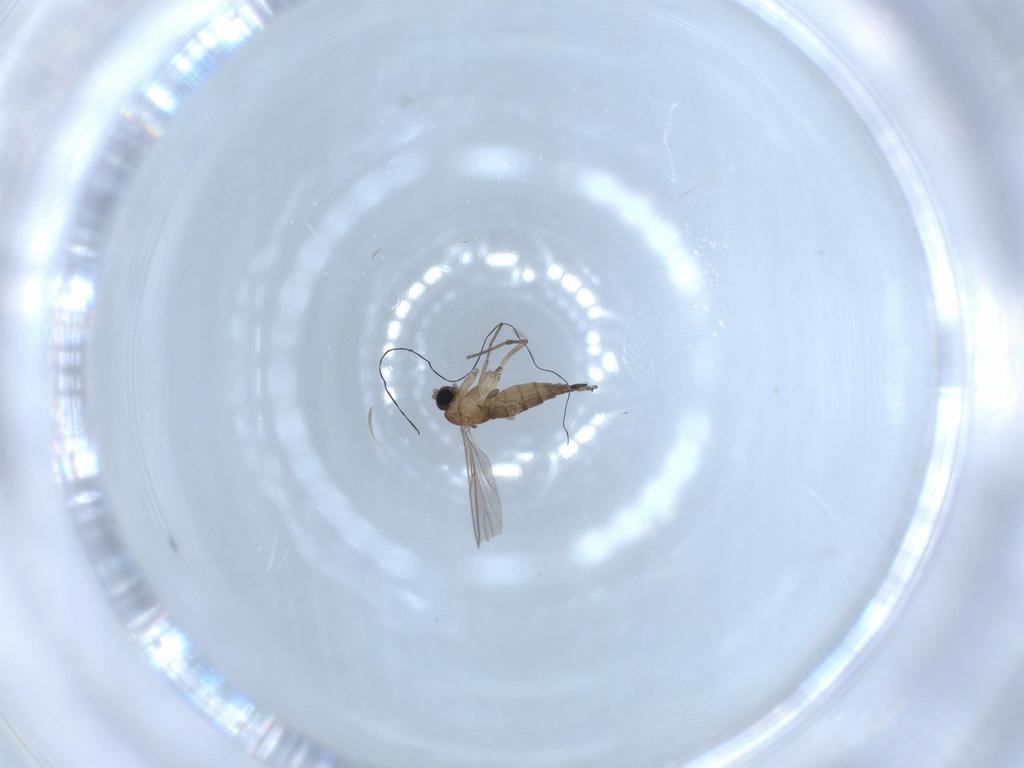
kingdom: Animalia
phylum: Arthropoda
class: Insecta
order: Diptera
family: Sciaridae
